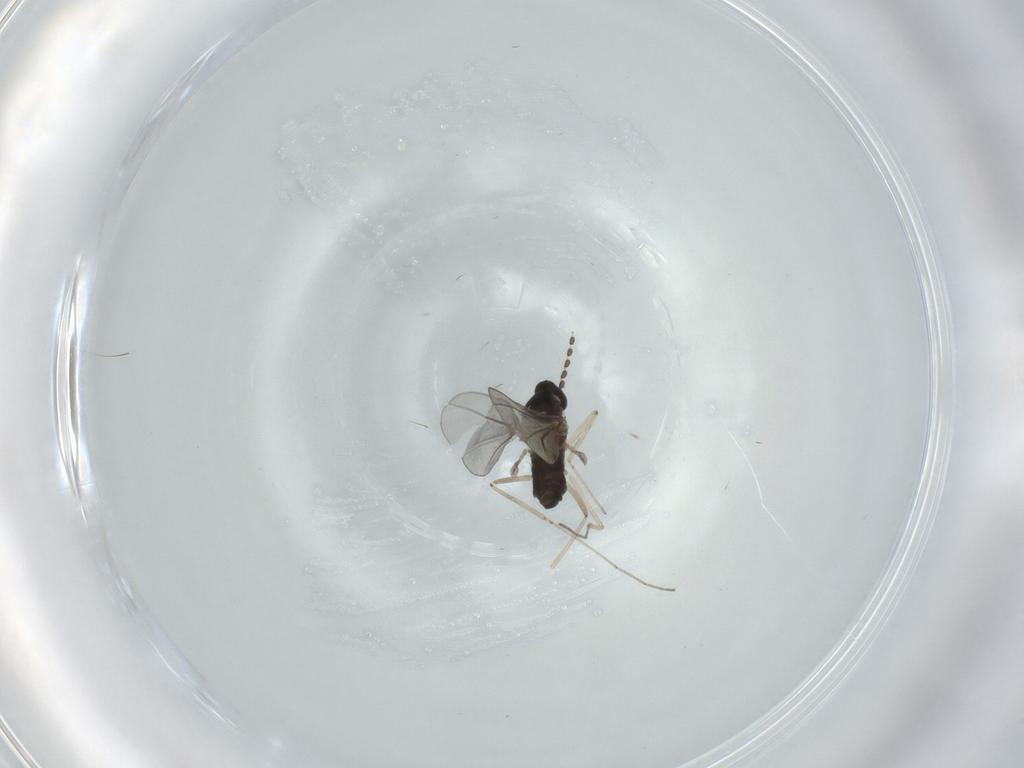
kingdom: Animalia
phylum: Arthropoda
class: Insecta
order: Diptera
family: Cecidomyiidae
